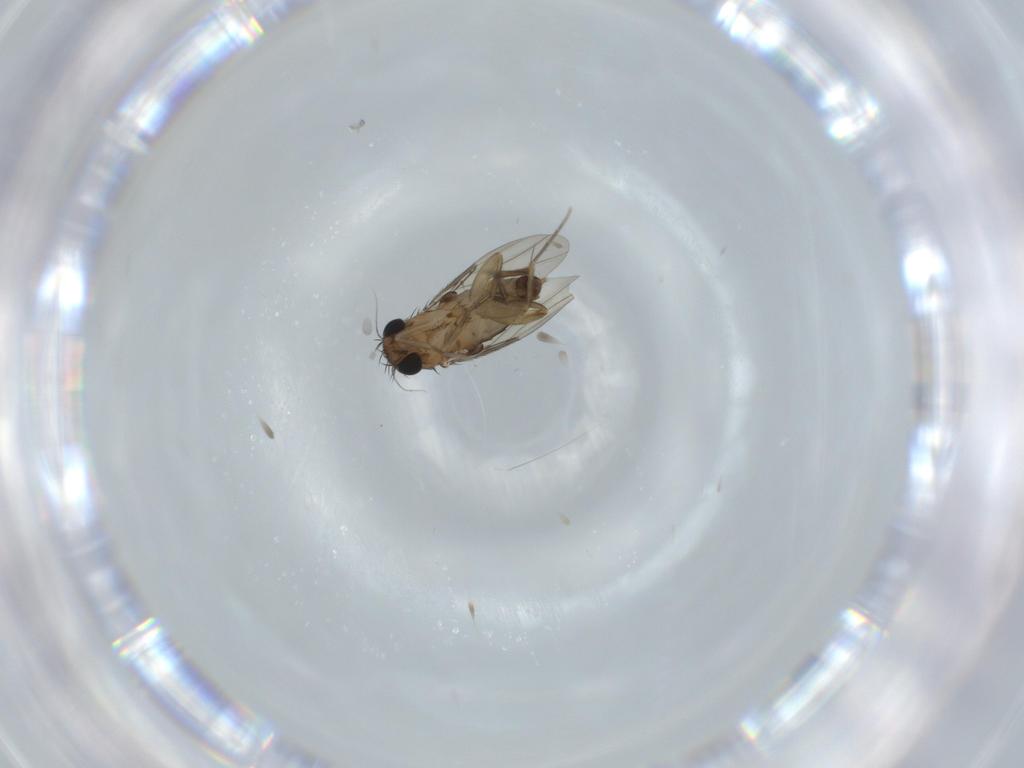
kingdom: Animalia
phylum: Arthropoda
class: Insecta
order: Diptera
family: Phoridae
